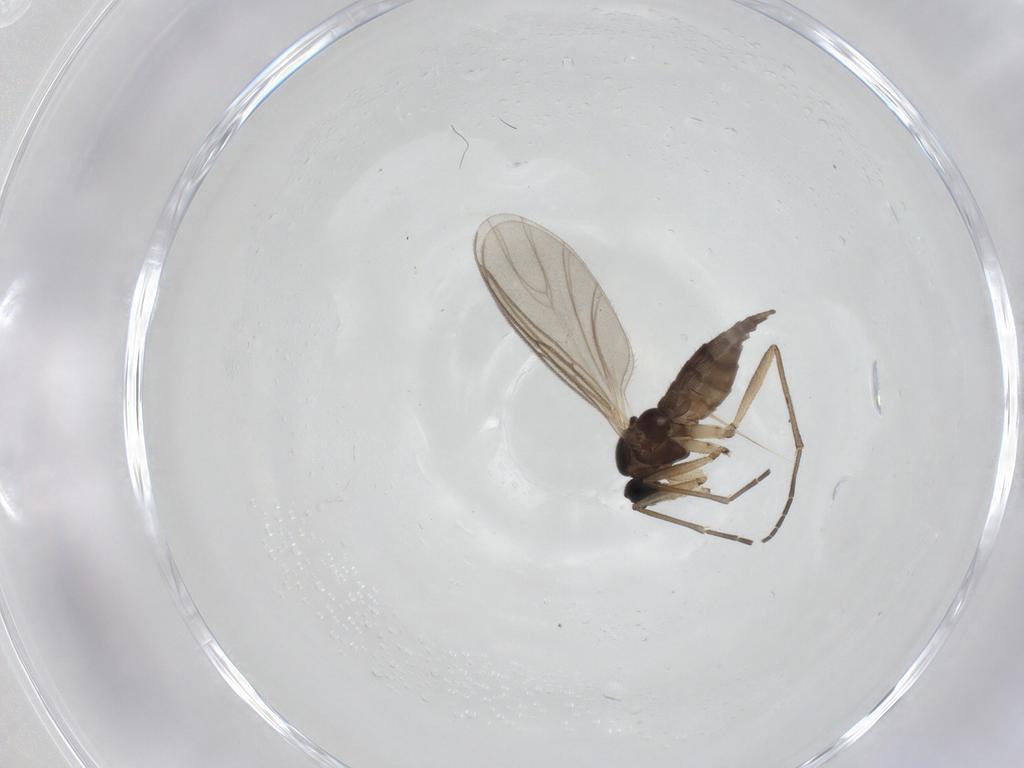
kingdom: Animalia
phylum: Arthropoda
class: Insecta
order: Diptera
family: Sciaridae
